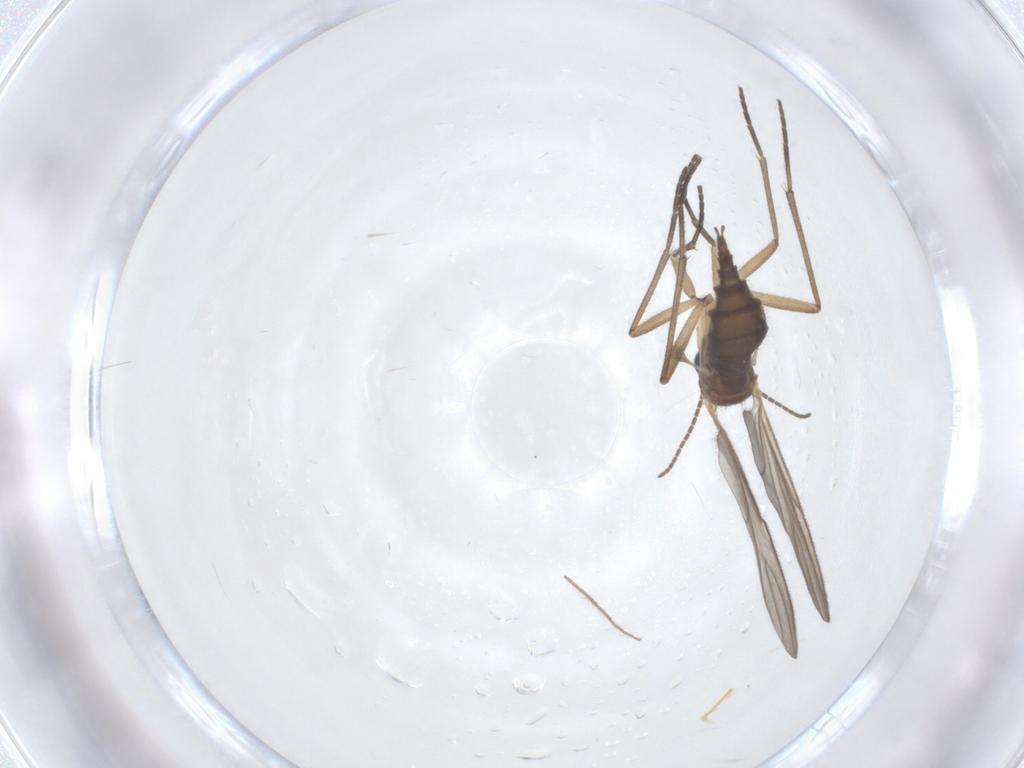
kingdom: Animalia
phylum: Arthropoda
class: Insecta
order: Diptera
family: Sciaridae
